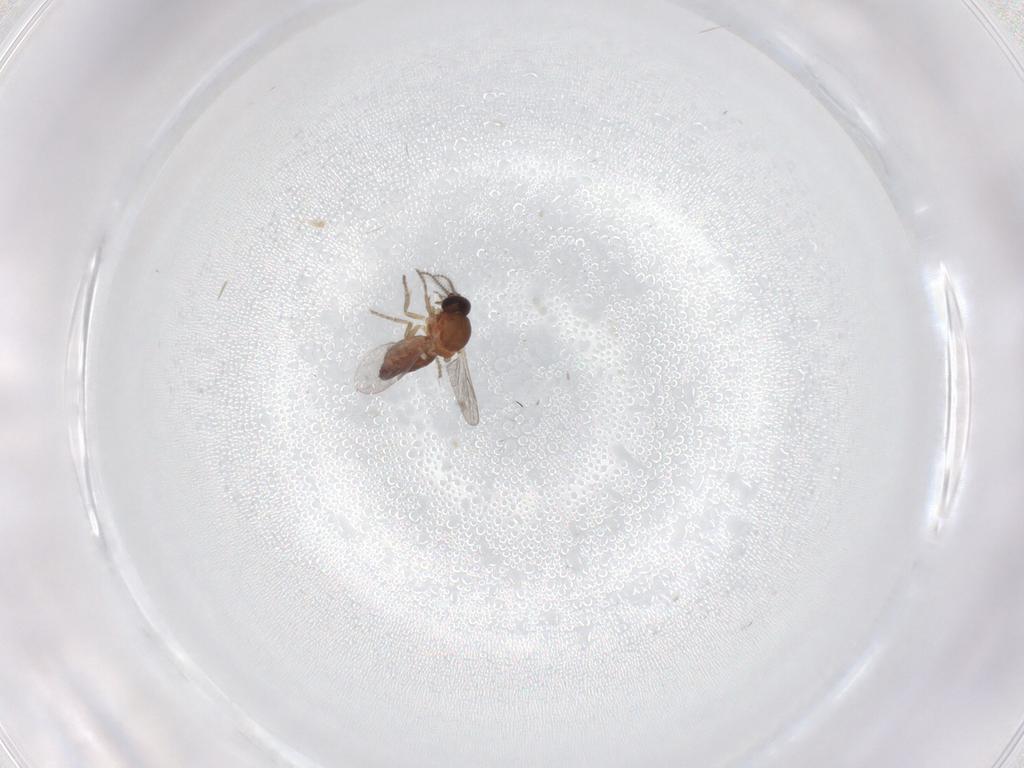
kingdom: Animalia
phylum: Arthropoda
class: Insecta
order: Diptera
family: Ceratopogonidae
